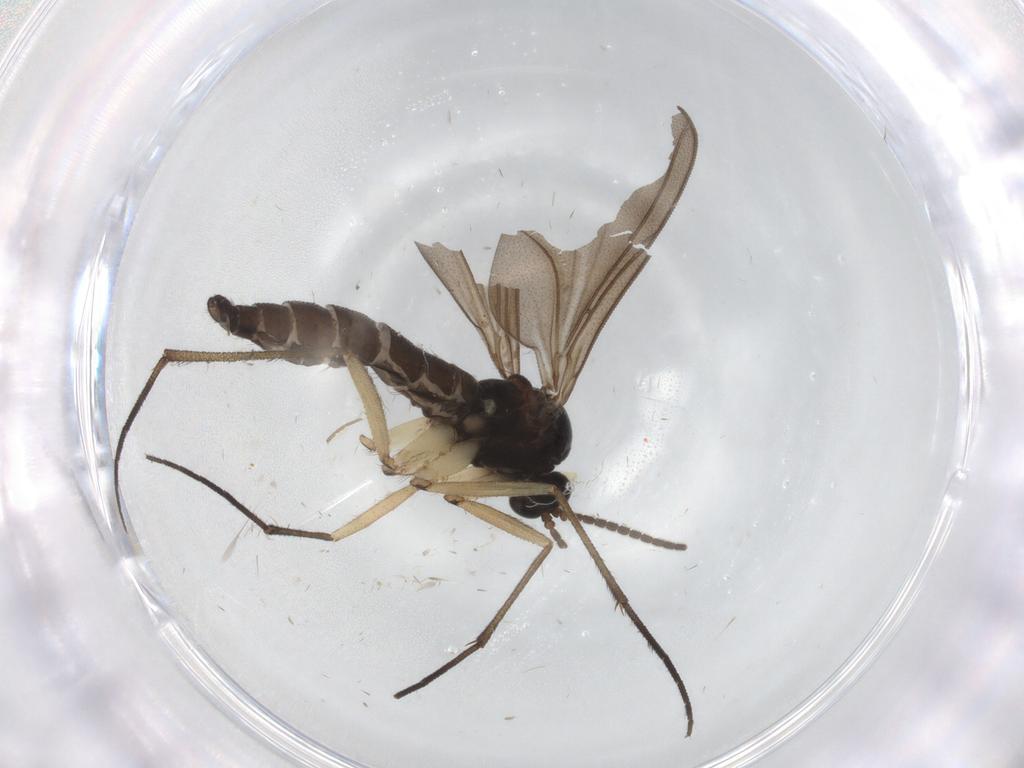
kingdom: Animalia
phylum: Arthropoda
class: Insecta
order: Diptera
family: Sciaridae
